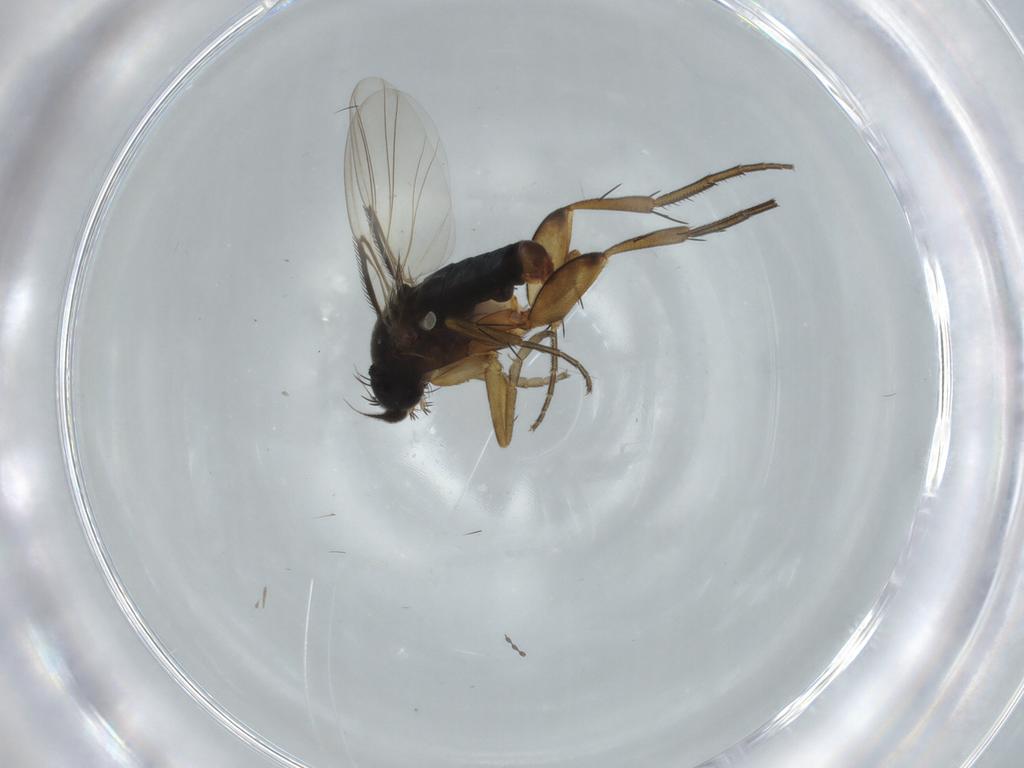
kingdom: Animalia
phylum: Arthropoda
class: Insecta
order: Diptera
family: Phoridae
